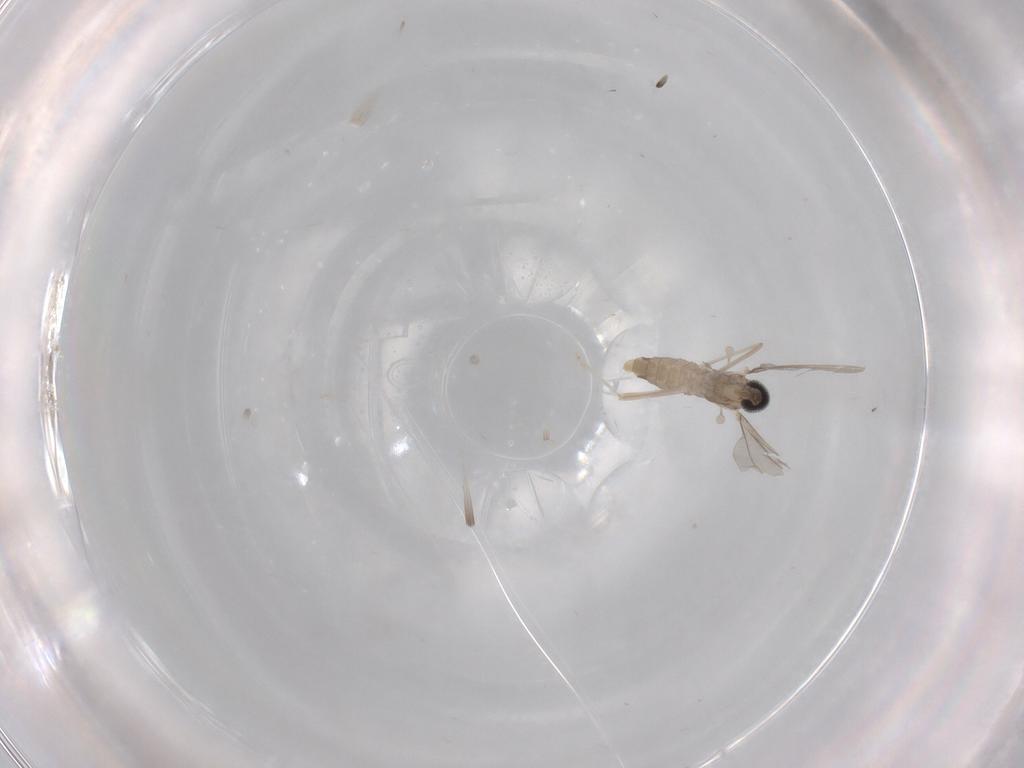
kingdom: Animalia
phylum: Arthropoda
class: Insecta
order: Diptera
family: Cecidomyiidae
